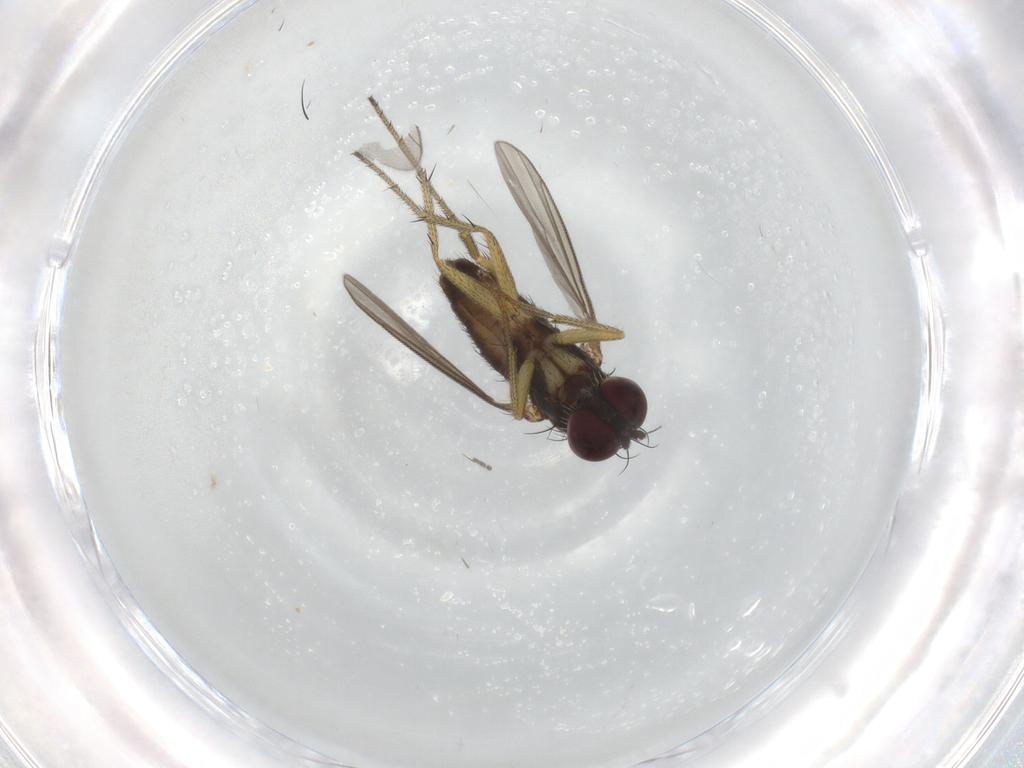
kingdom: Animalia
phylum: Arthropoda
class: Insecta
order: Diptera
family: Dolichopodidae
